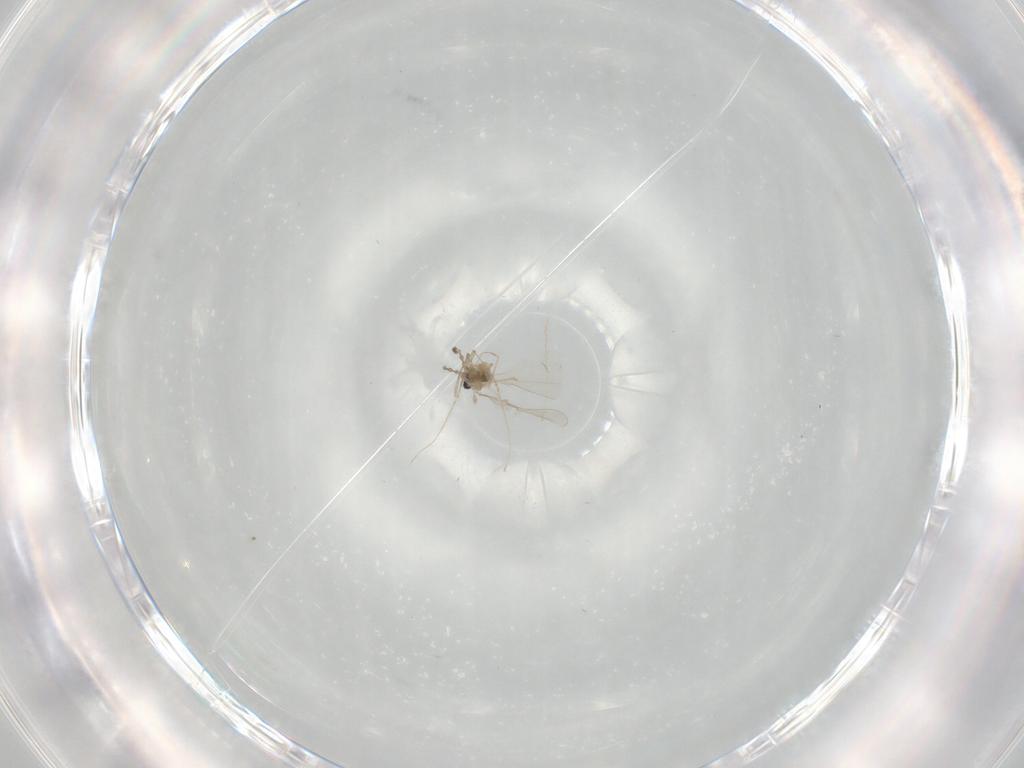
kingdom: Animalia
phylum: Arthropoda
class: Insecta
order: Diptera
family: Cecidomyiidae
